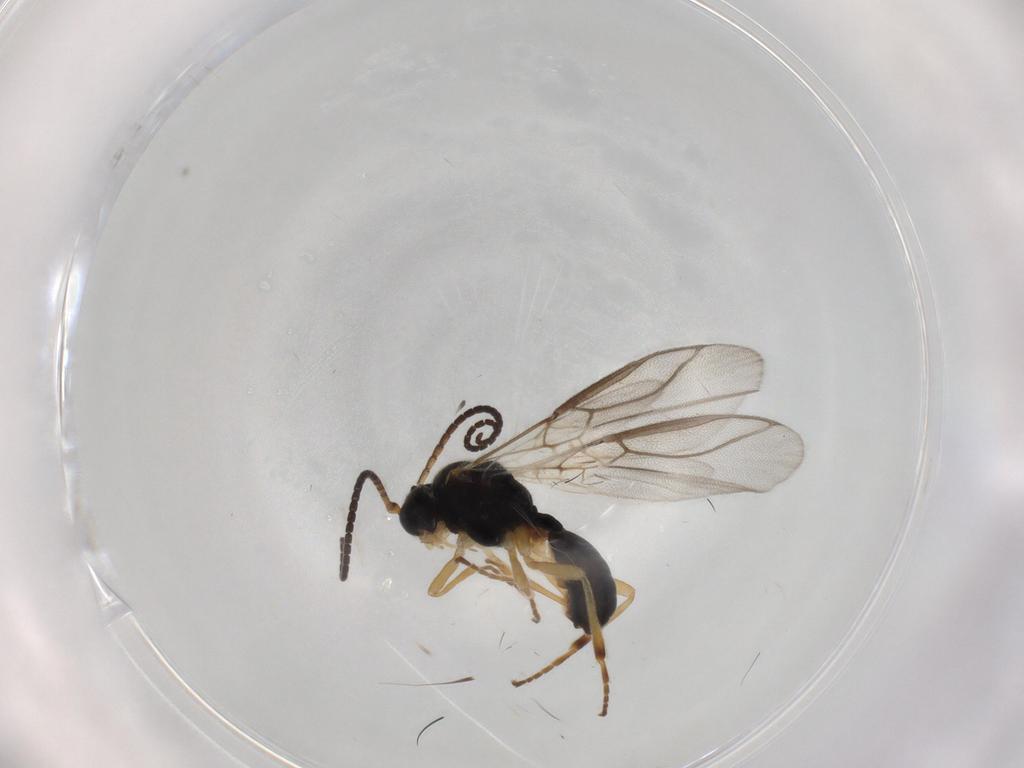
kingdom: Animalia
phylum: Arthropoda
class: Insecta
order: Hymenoptera
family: Braconidae
